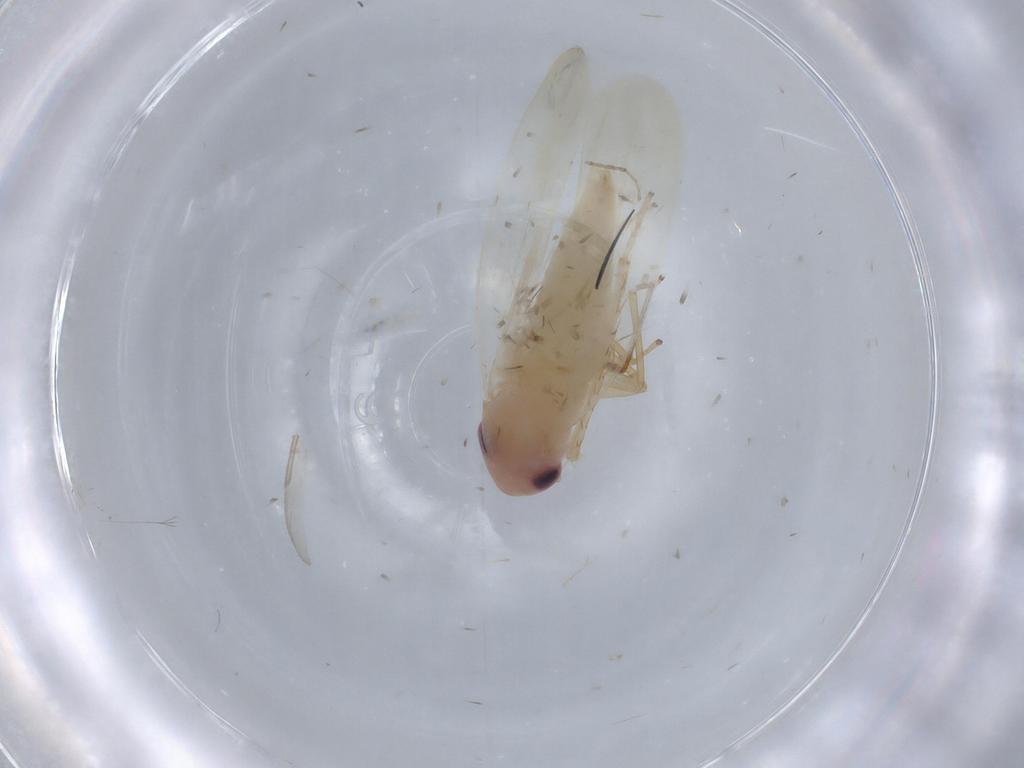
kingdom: Animalia
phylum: Arthropoda
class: Insecta
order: Hemiptera
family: Cicadellidae
